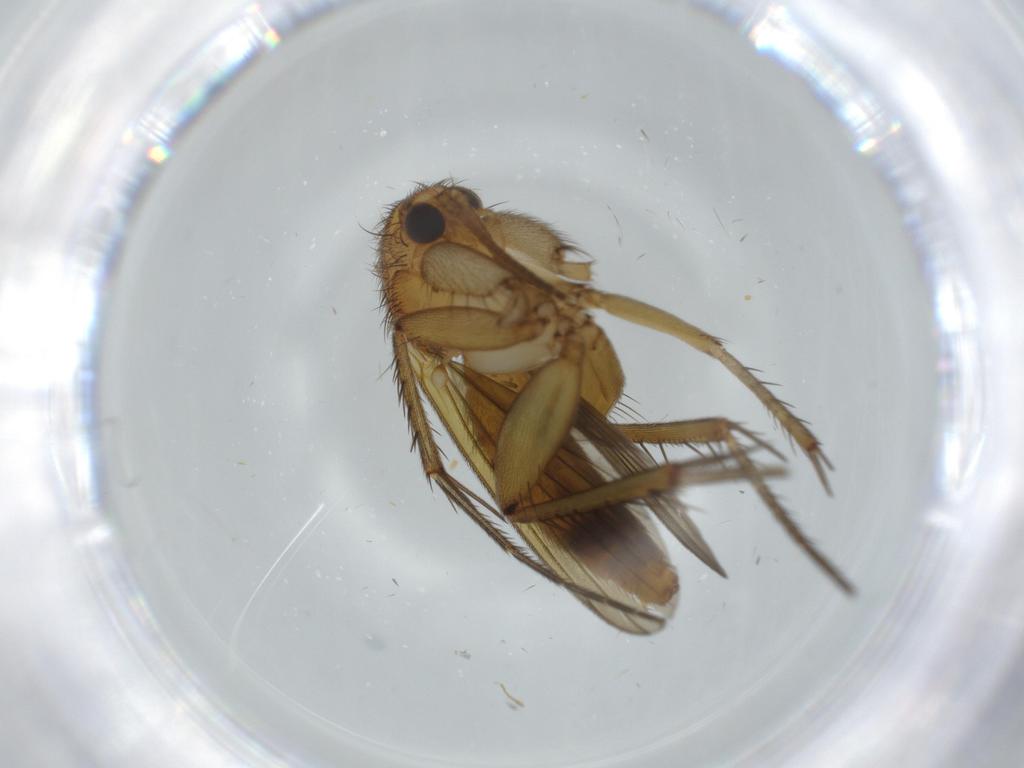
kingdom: Animalia
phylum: Arthropoda
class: Insecta
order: Diptera
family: Mycetophilidae
